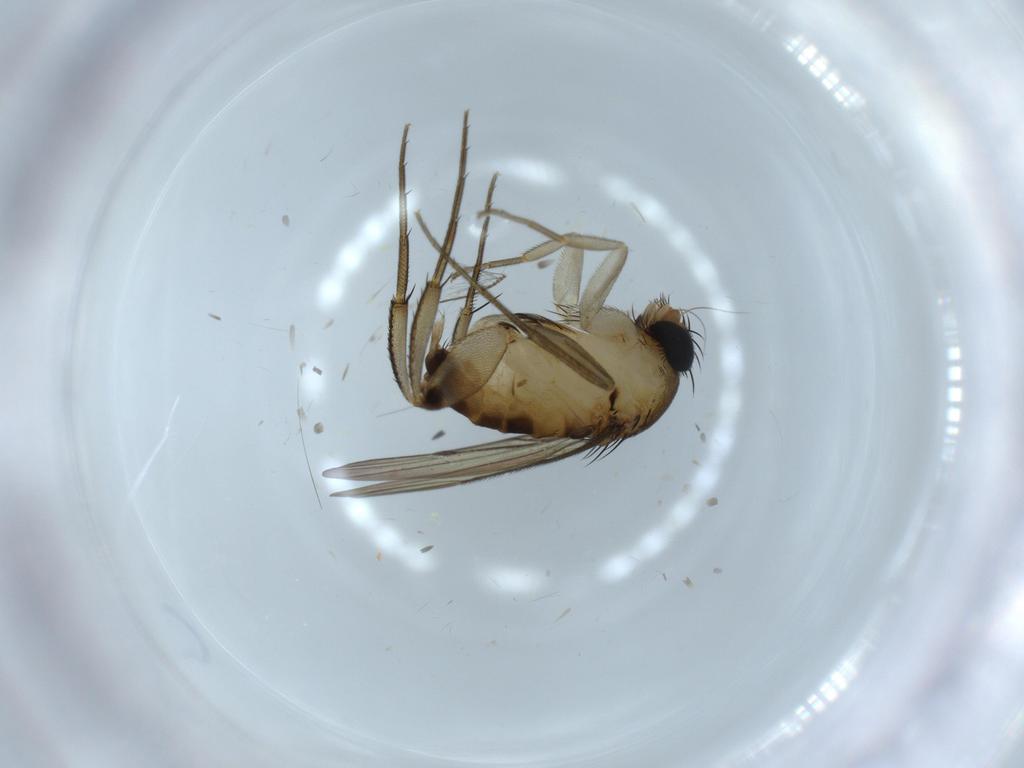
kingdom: Animalia
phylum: Arthropoda
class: Insecta
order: Diptera
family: Phoridae
